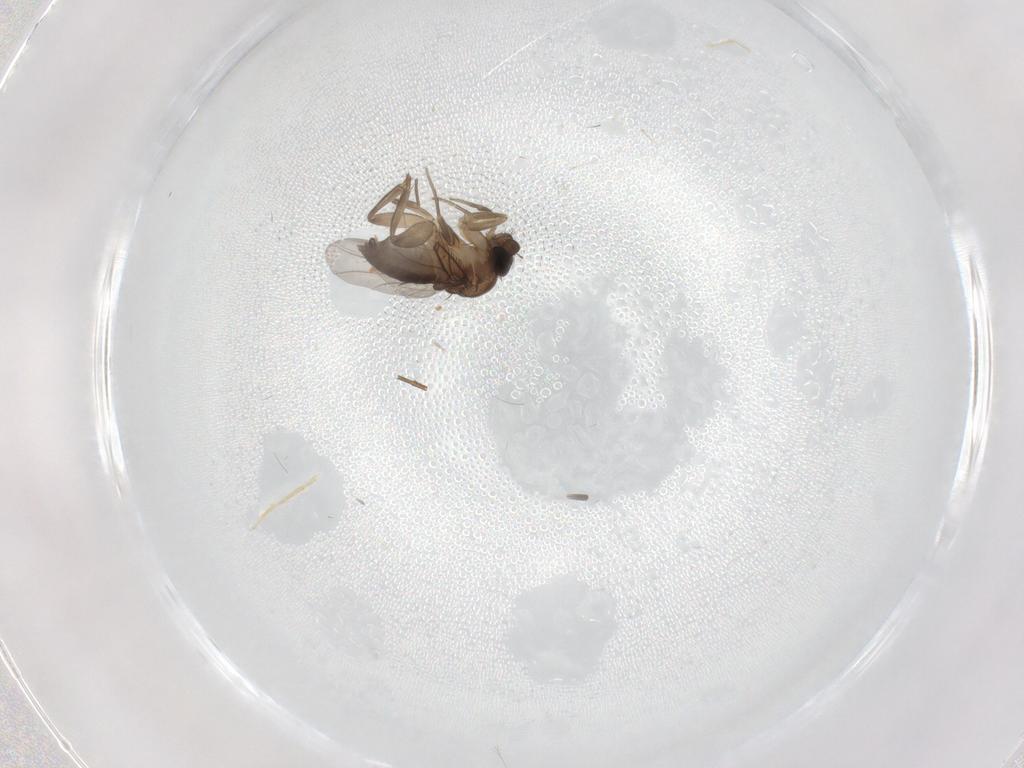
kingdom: Animalia
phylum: Arthropoda
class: Insecta
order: Diptera
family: Phoridae
